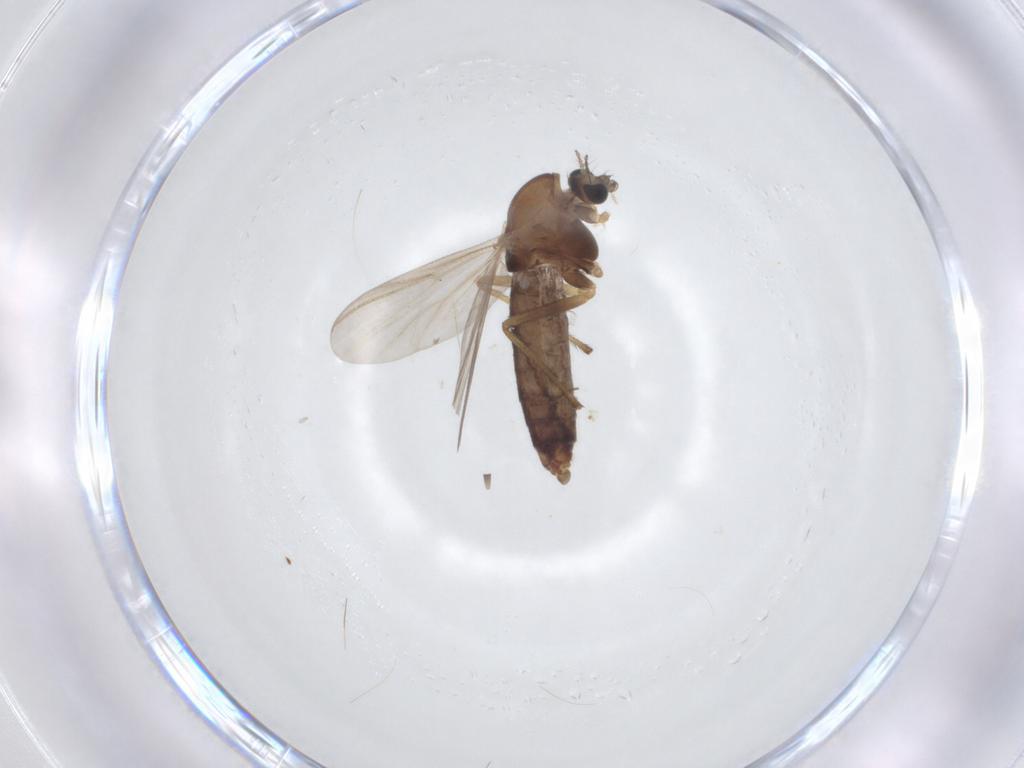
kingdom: Animalia
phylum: Arthropoda
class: Insecta
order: Diptera
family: Chironomidae
